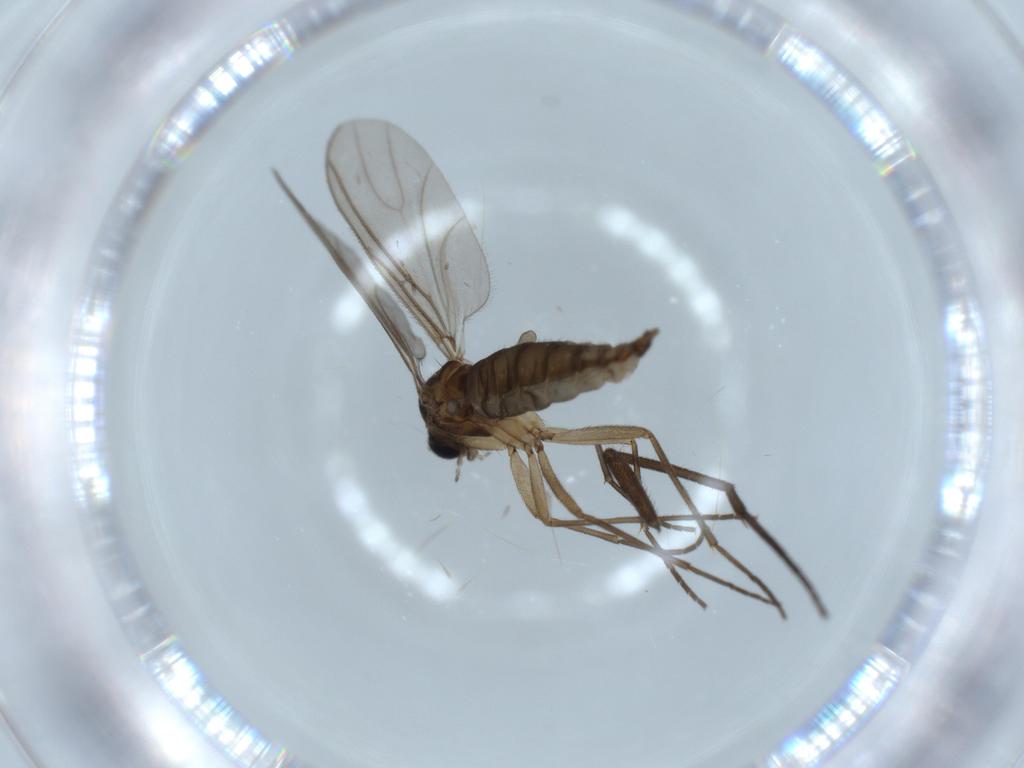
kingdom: Animalia
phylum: Arthropoda
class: Insecta
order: Diptera
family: Sciaridae
